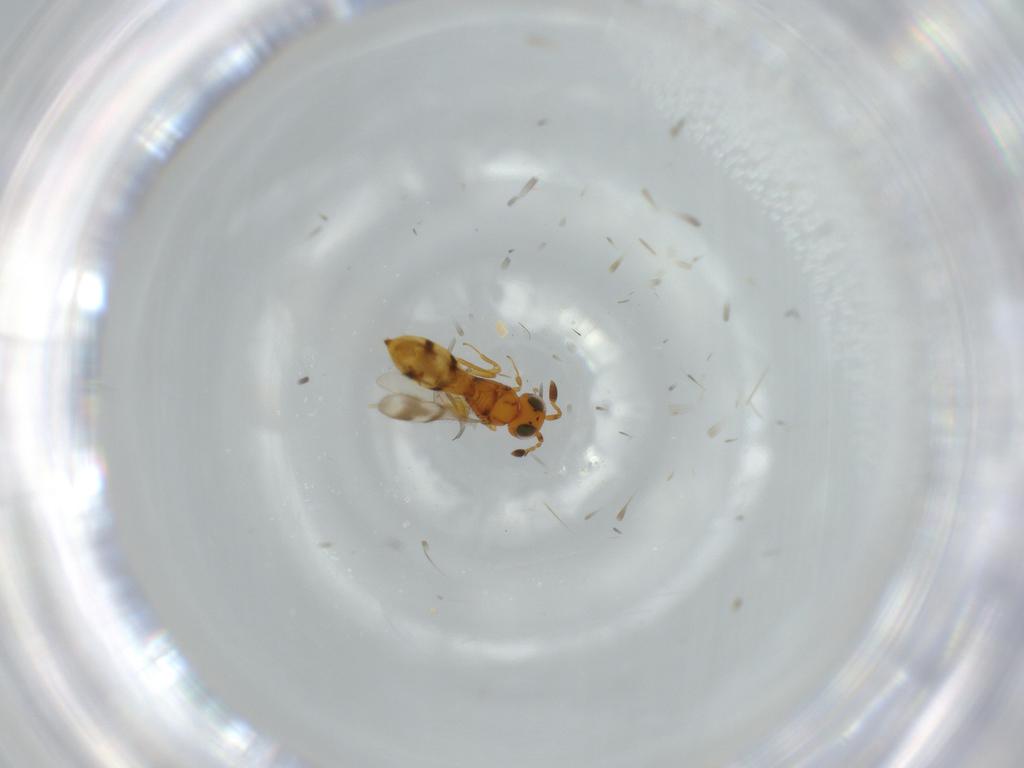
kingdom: Animalia
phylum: Arthropoda
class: Insecta
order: Hymenoptera
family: Scelionidae
